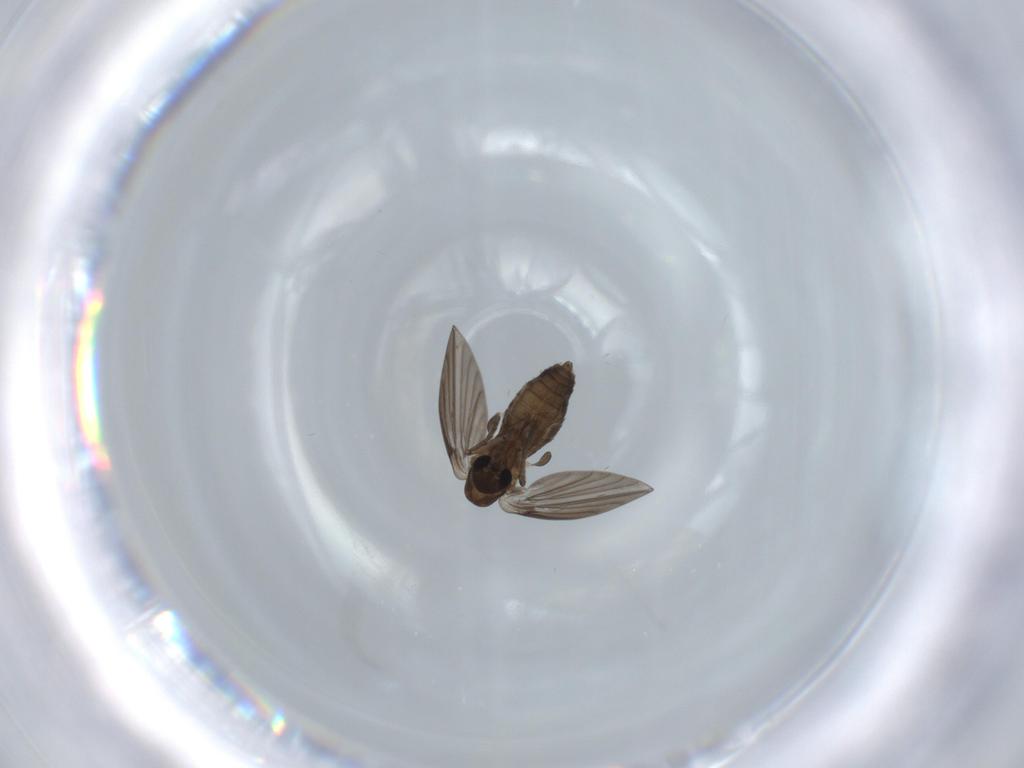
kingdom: Animalia
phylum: Arthropoda
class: Insecta
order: Diptera
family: Psychodidae
